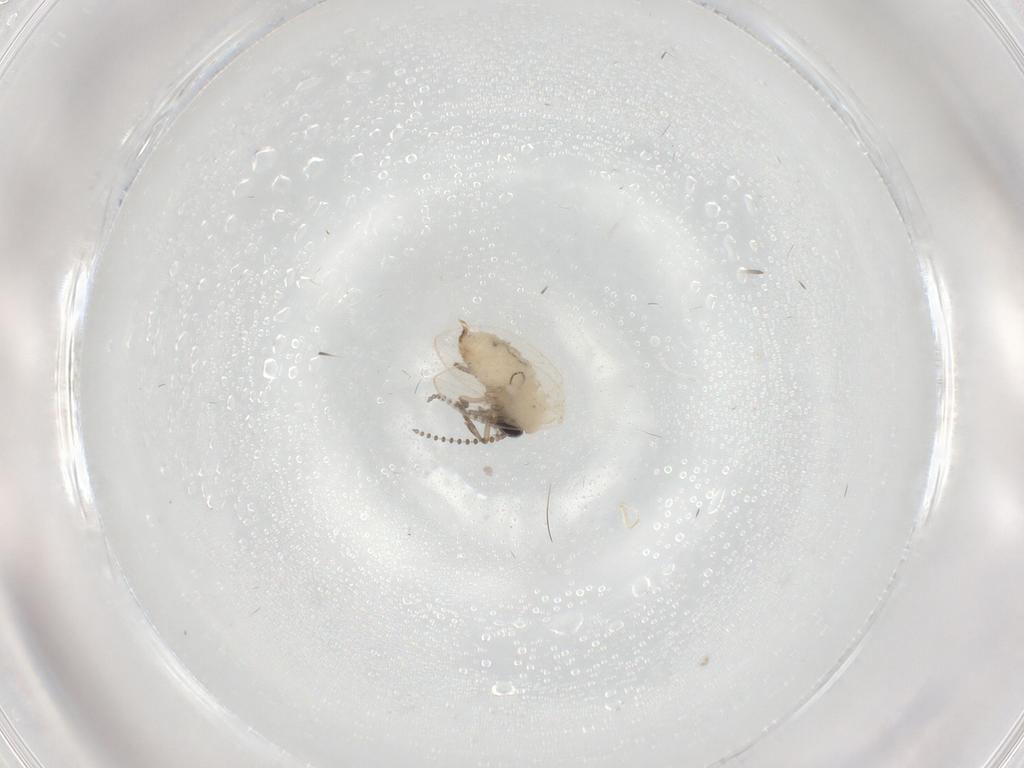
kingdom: Animalia
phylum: Arthropoda
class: Insecta
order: Diptera
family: Psychodidae
